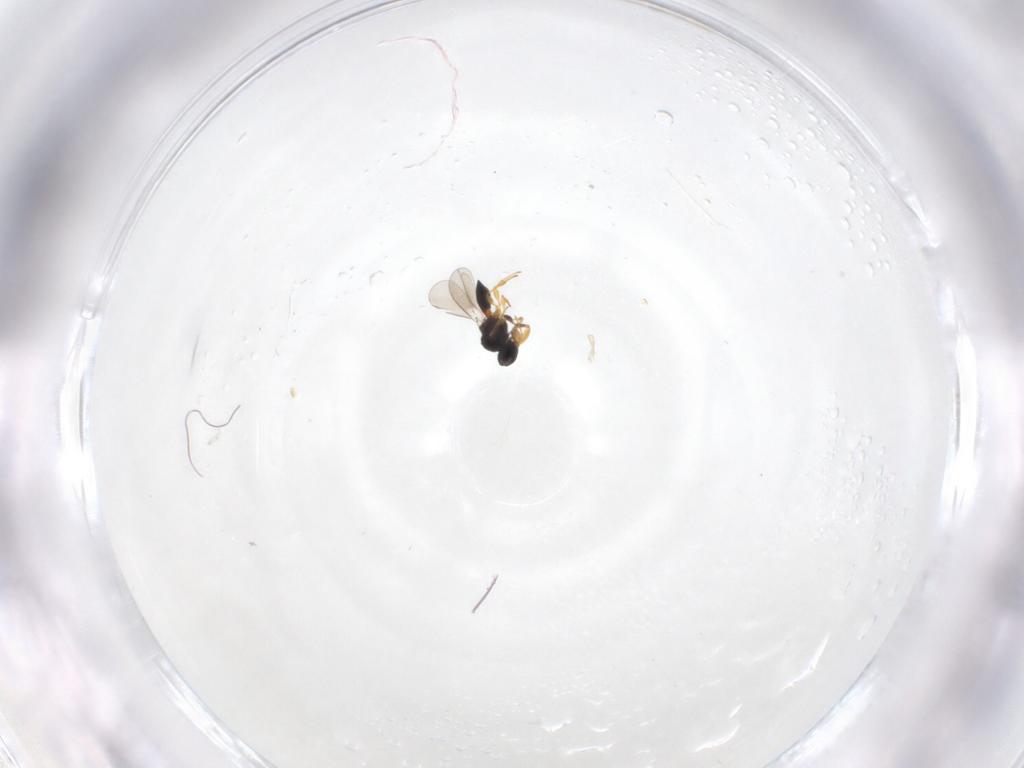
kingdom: Animalia
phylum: Arthropoda
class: Insecta
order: Hymenoptera
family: Platygastridae
